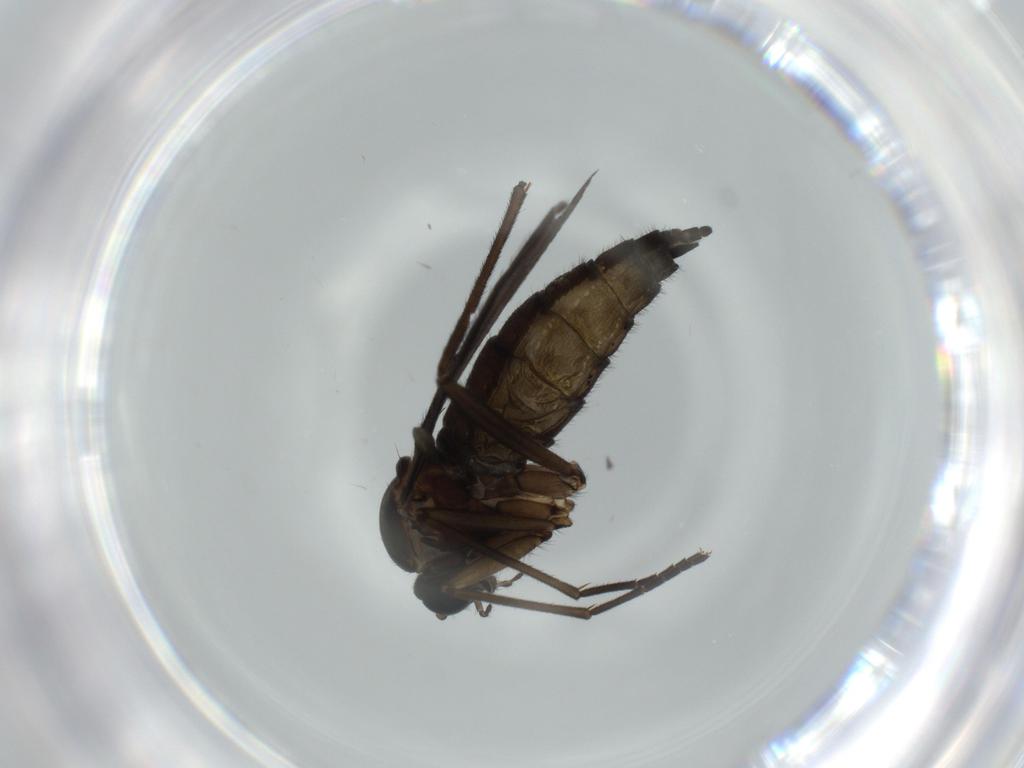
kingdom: Animalia
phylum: Arthropoda
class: Insecta
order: Diptera
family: Sciaridae
